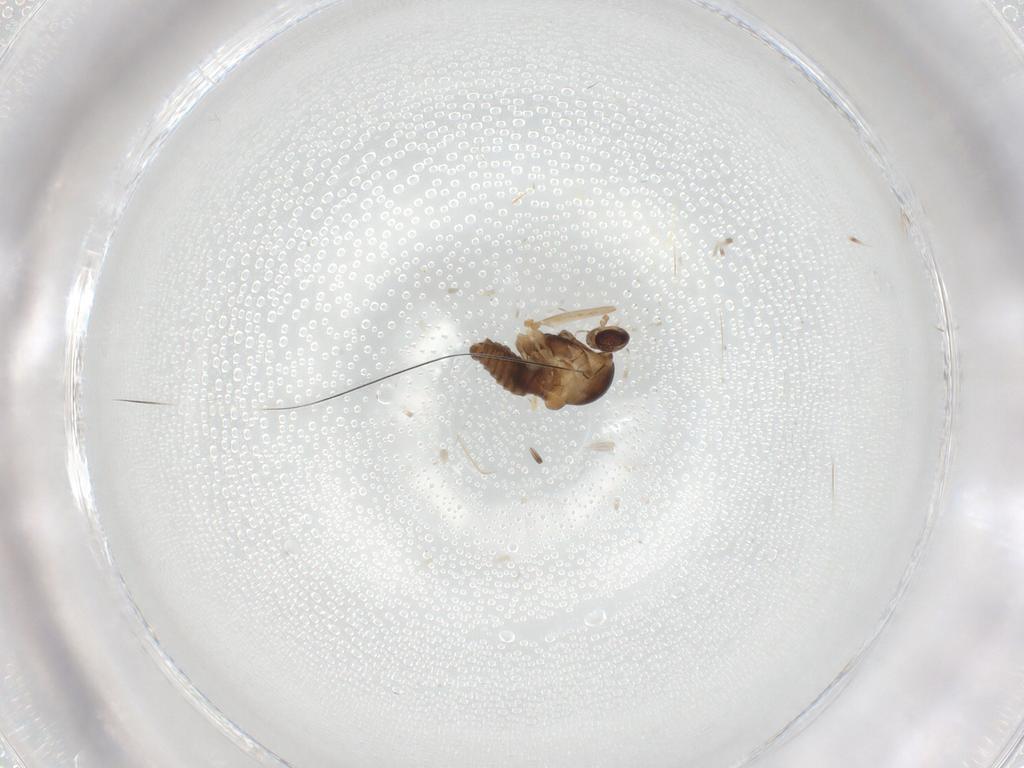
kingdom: Animalia
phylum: Arthropoda
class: Insecta
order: Diptera
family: Cecidomyiidae
